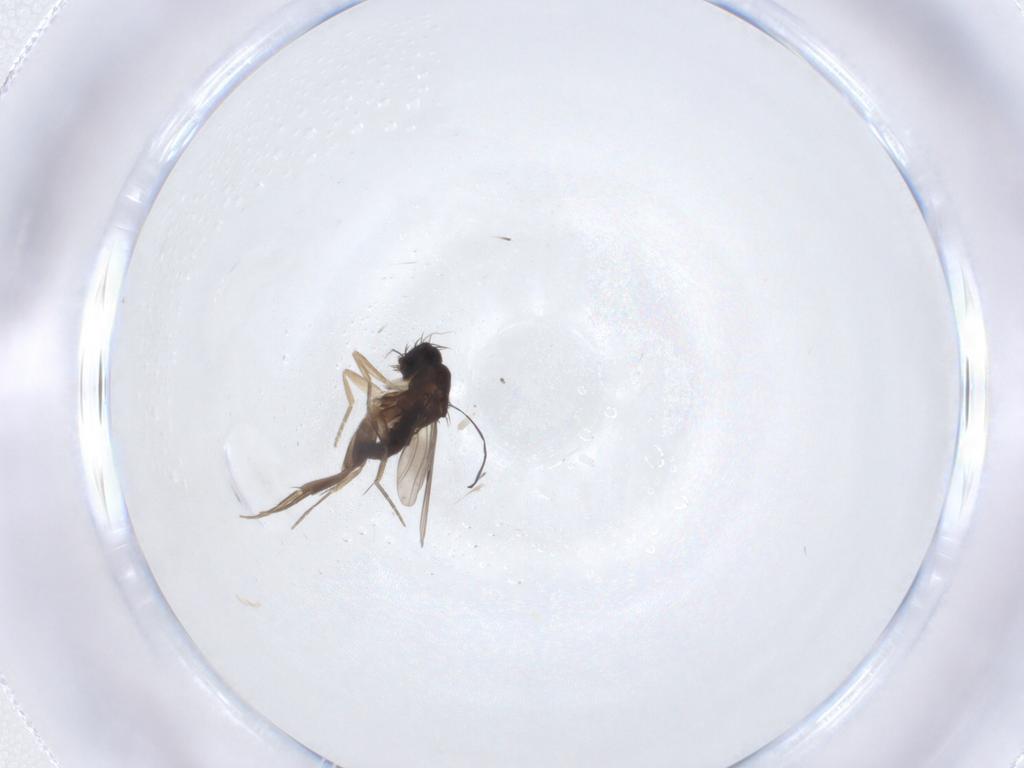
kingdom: Animalia
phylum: Arthropoda
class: Insecta
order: Diptera
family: Phoridae
